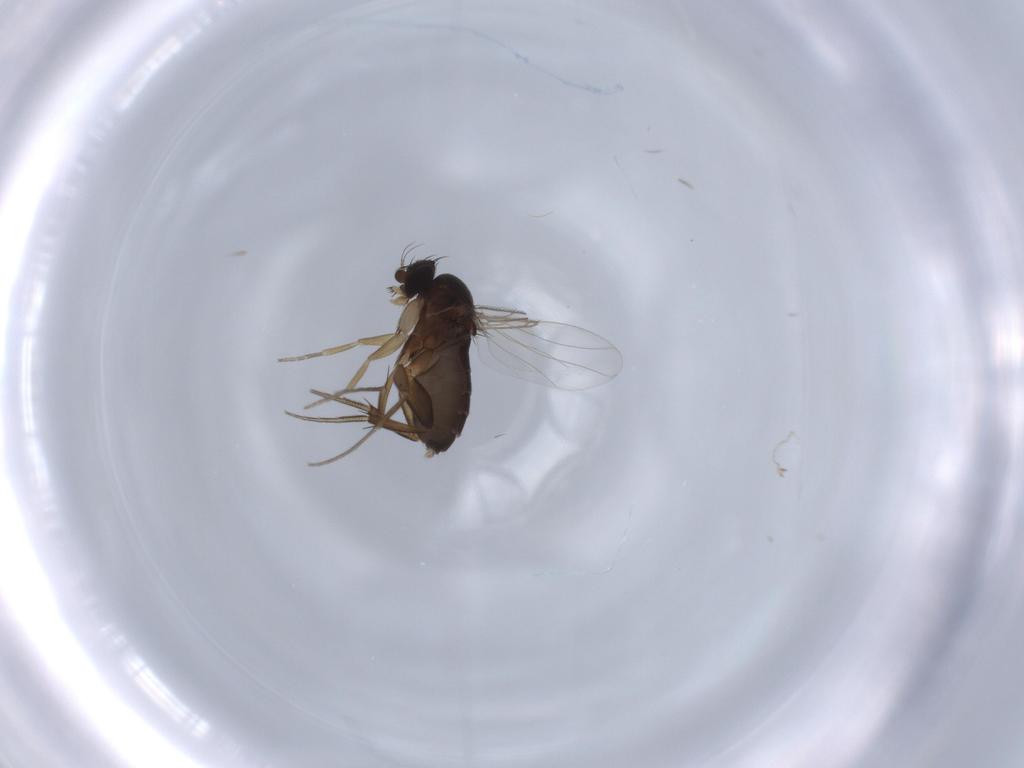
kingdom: Animalia
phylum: Arthropoda
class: Insecta
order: Diptera
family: Phoridae
